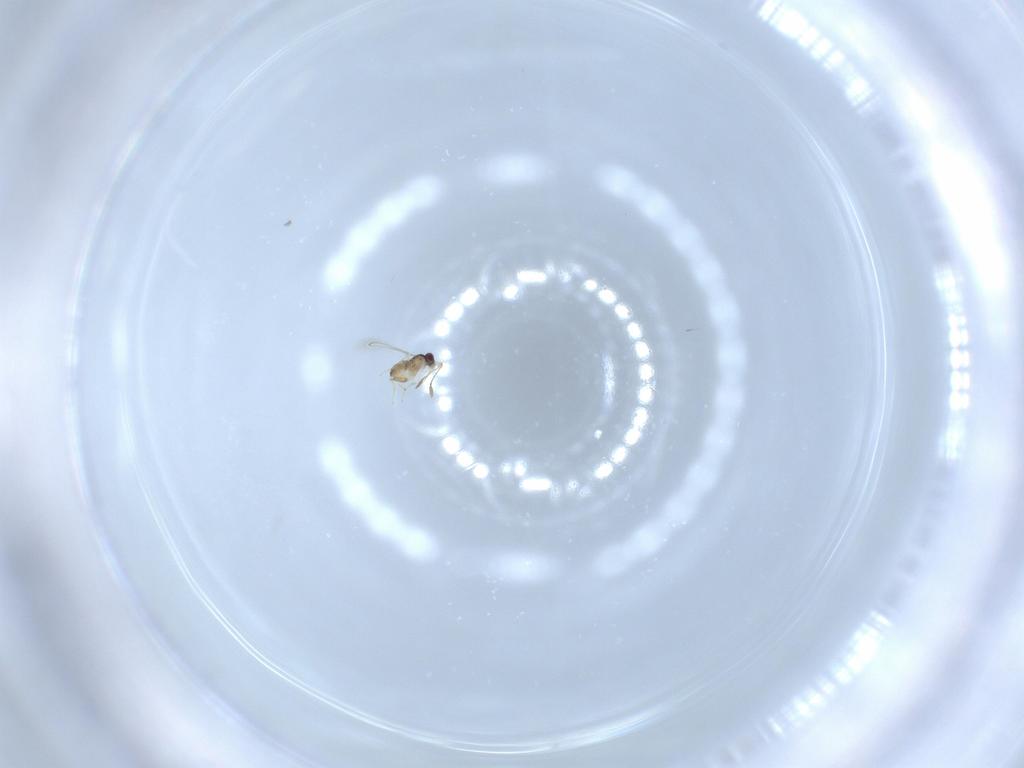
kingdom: Animalia
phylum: Arthropoda
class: Insecta
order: Hymenoptera
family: Mymaridae
